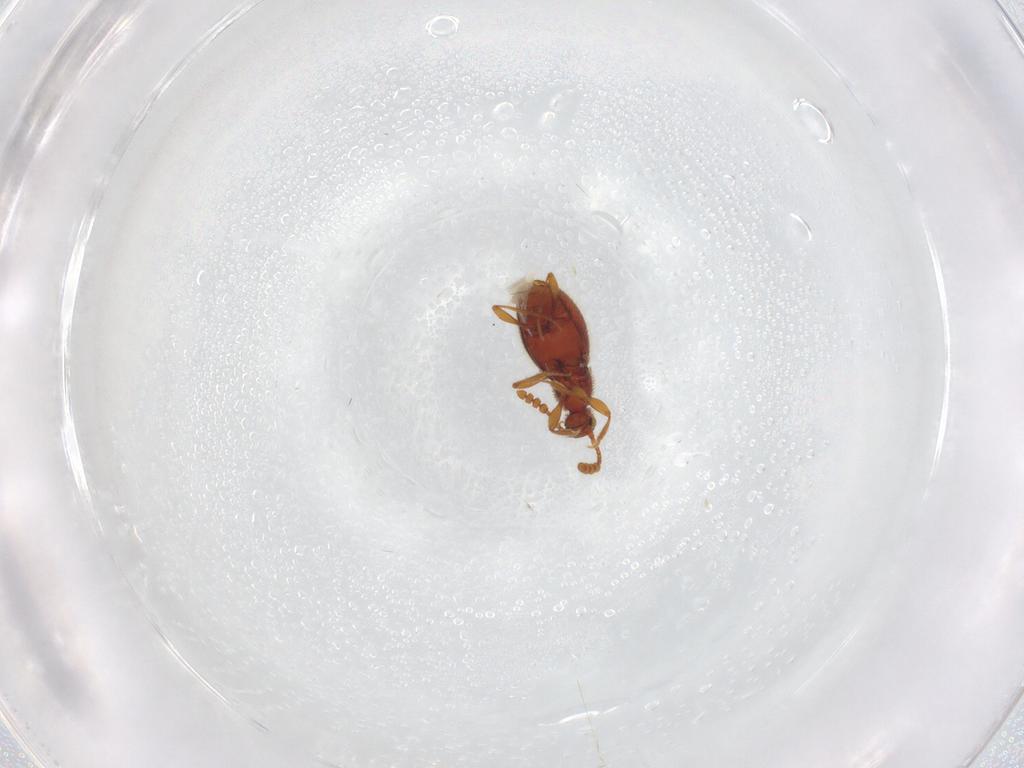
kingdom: Animalia
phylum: Arthropoda
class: Insecta
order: Coleoptera
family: Staphylinidae
